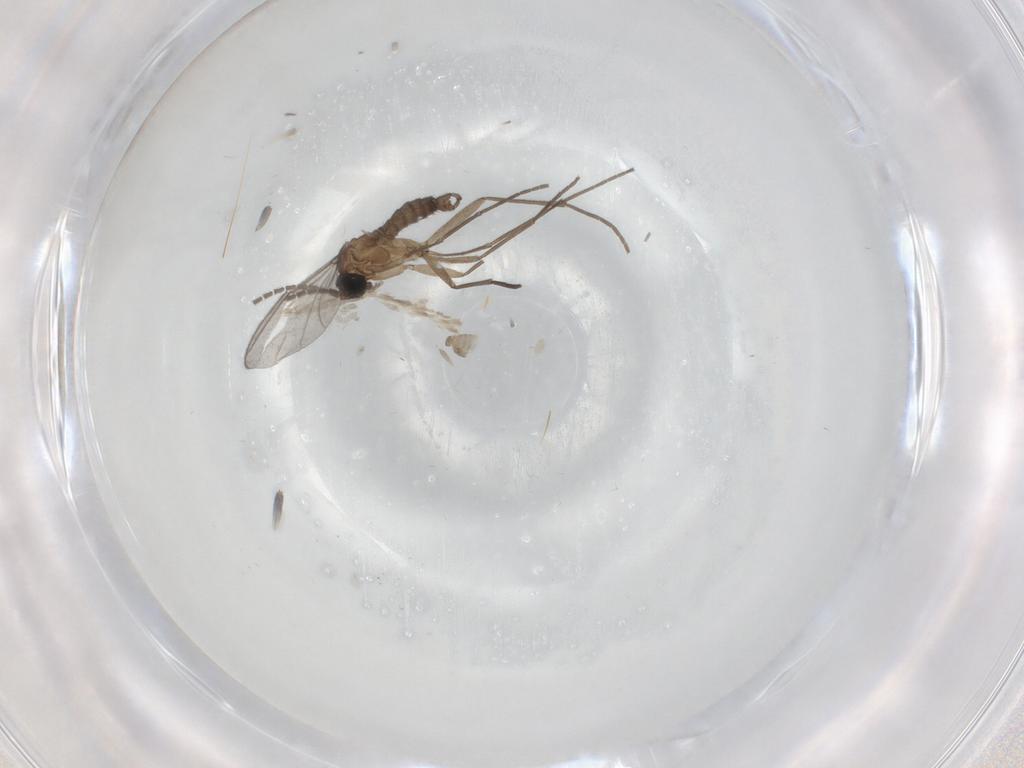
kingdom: Animalia
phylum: Arthropoda
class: Insecta
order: Diptera
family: Cecidomyiidae
